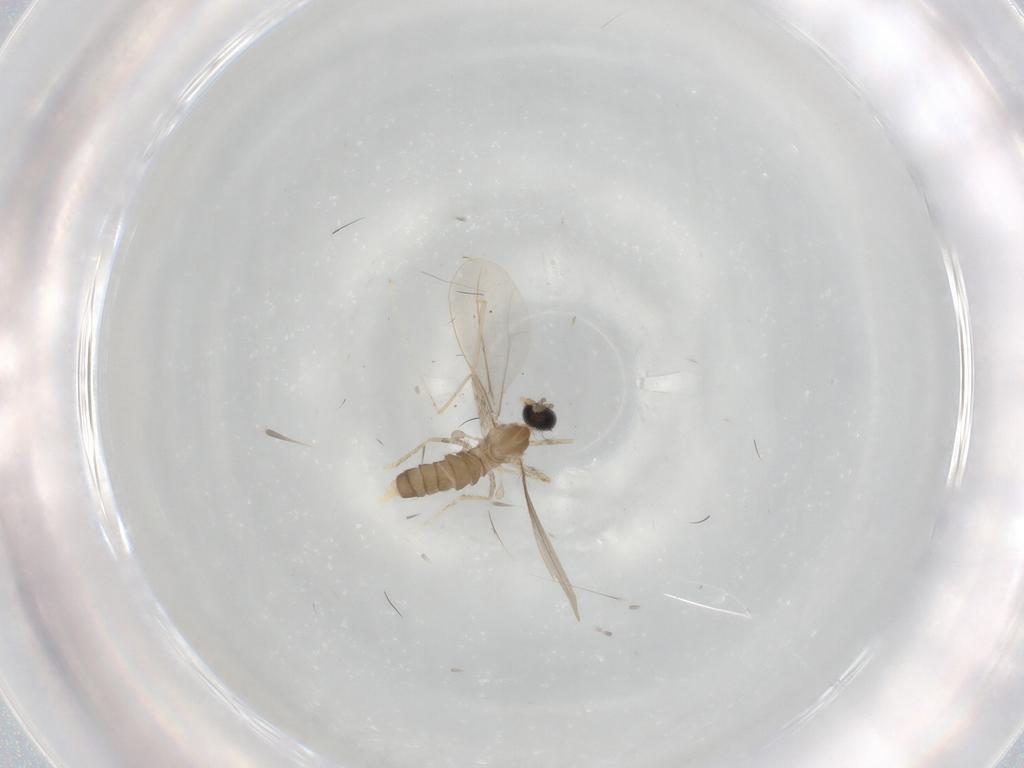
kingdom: Animalia
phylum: Arthropoda
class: Insecta
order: Diptera
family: Cecidomyiidae
